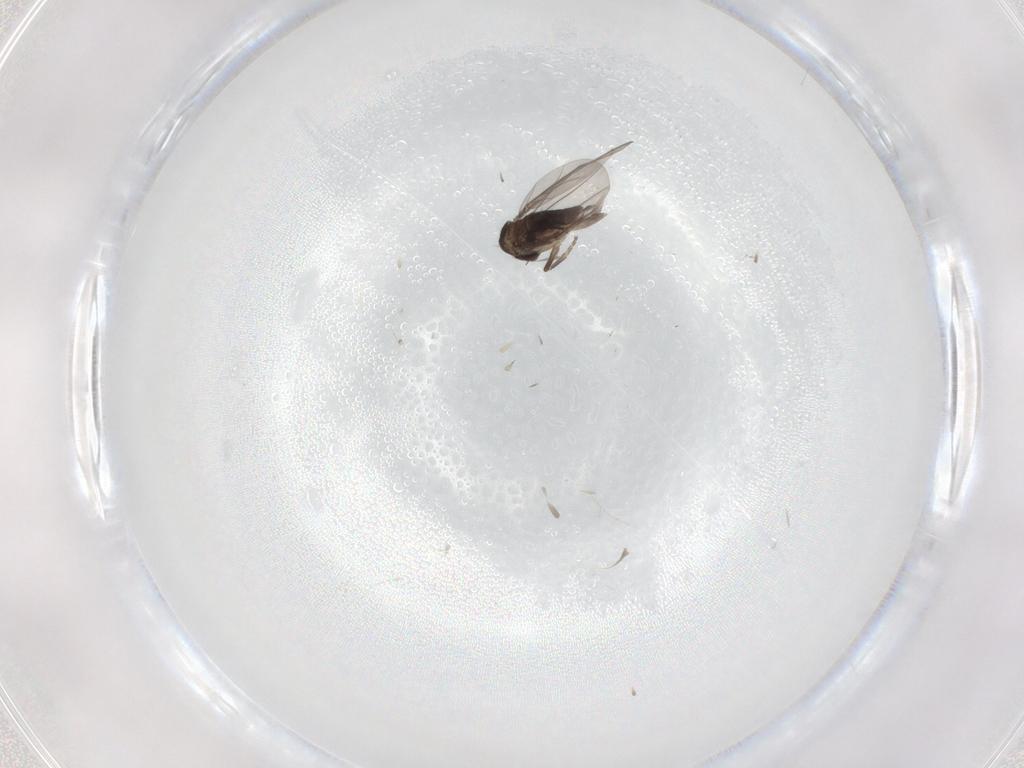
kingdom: Animalia
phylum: Arthropoda
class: Insecta
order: Diptera
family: Phoridae
